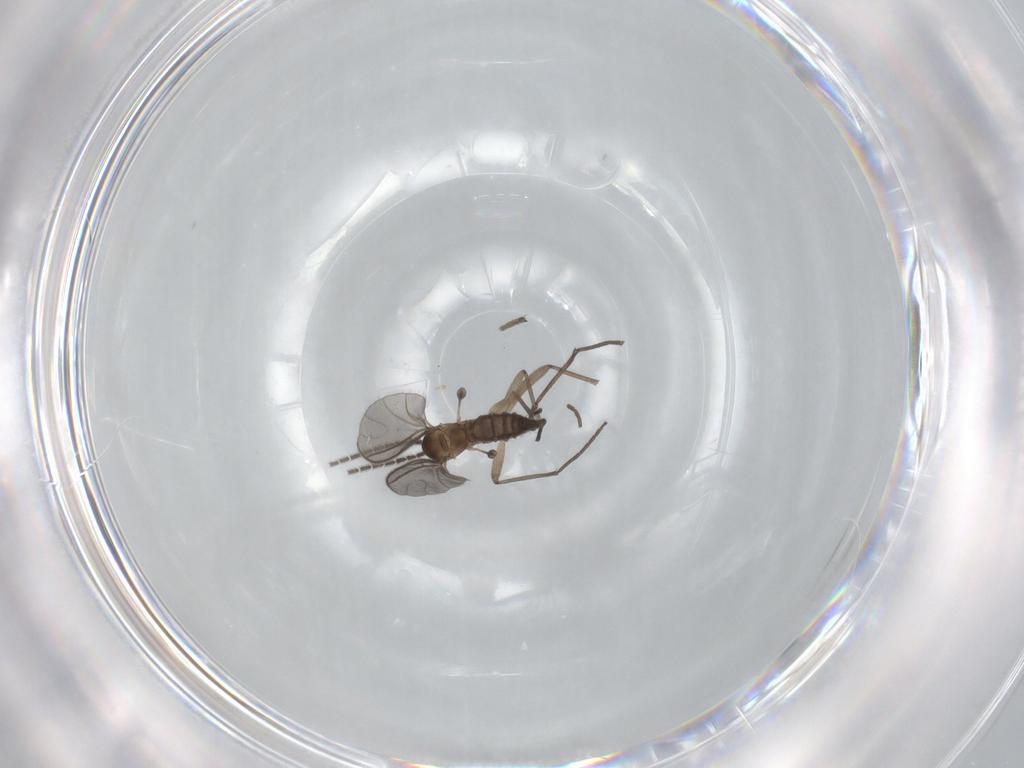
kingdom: Animalia
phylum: Arthropoda
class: Insecta
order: Diptera
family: Sciaridae
